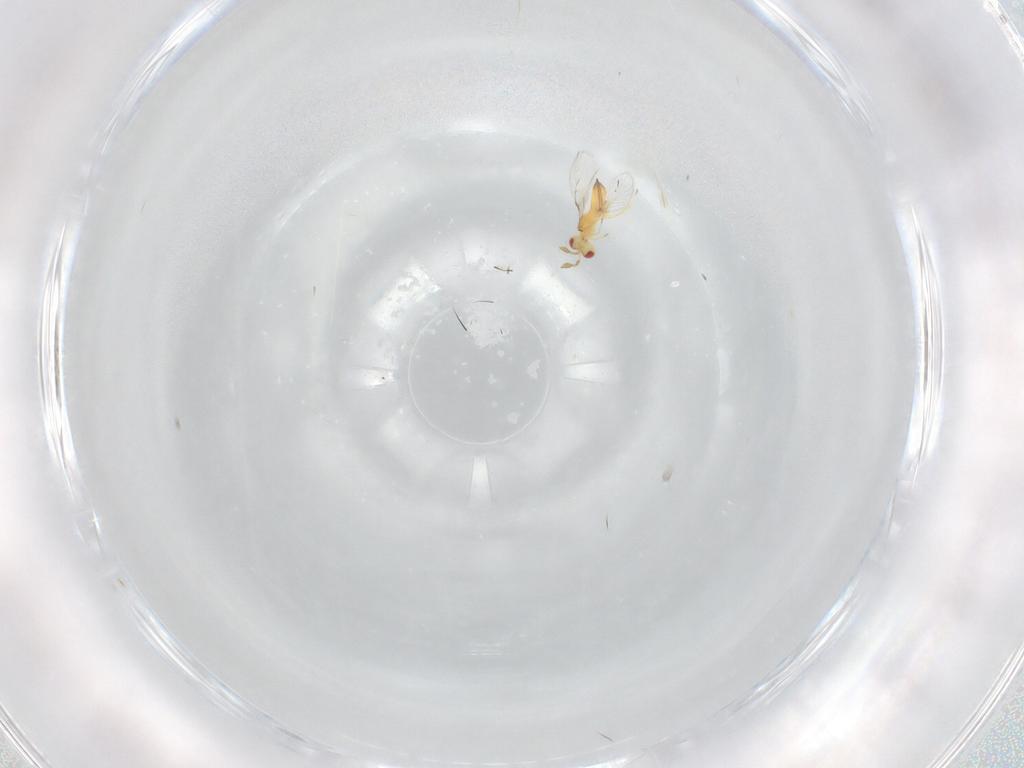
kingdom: Animalia
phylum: Arthropoda
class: Insecta
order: Hymenoptera
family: Trichogrammatidae
